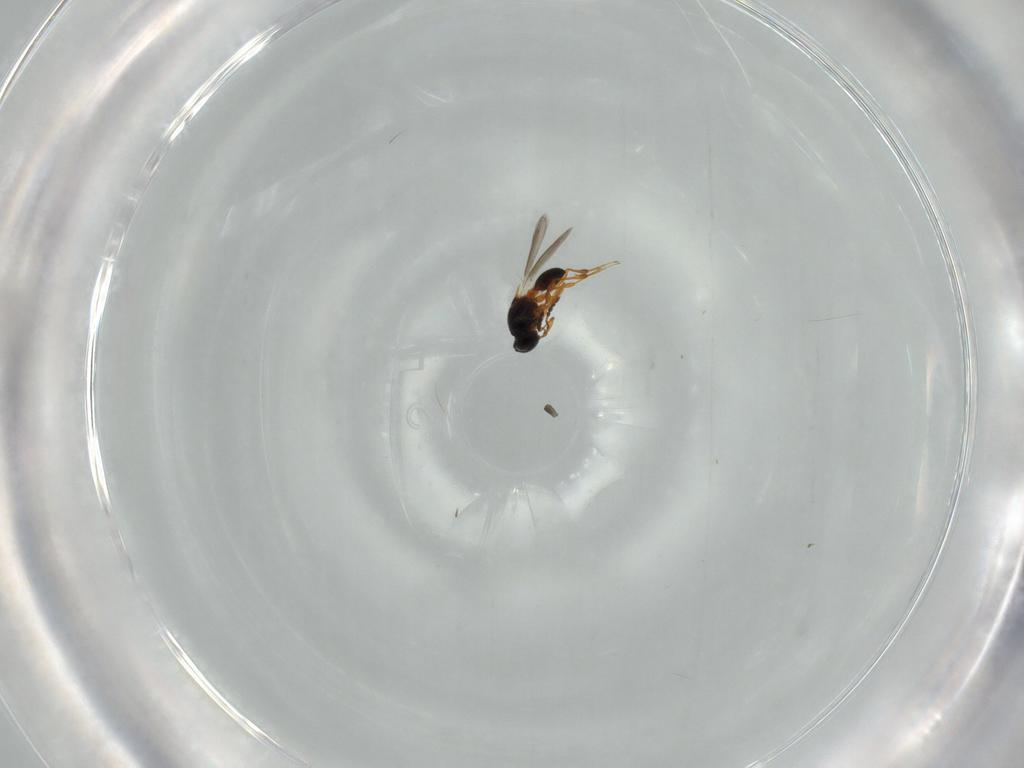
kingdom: Animalia
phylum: Arthropoda
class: Insecta
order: Hymenoptera
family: Platygastridae
